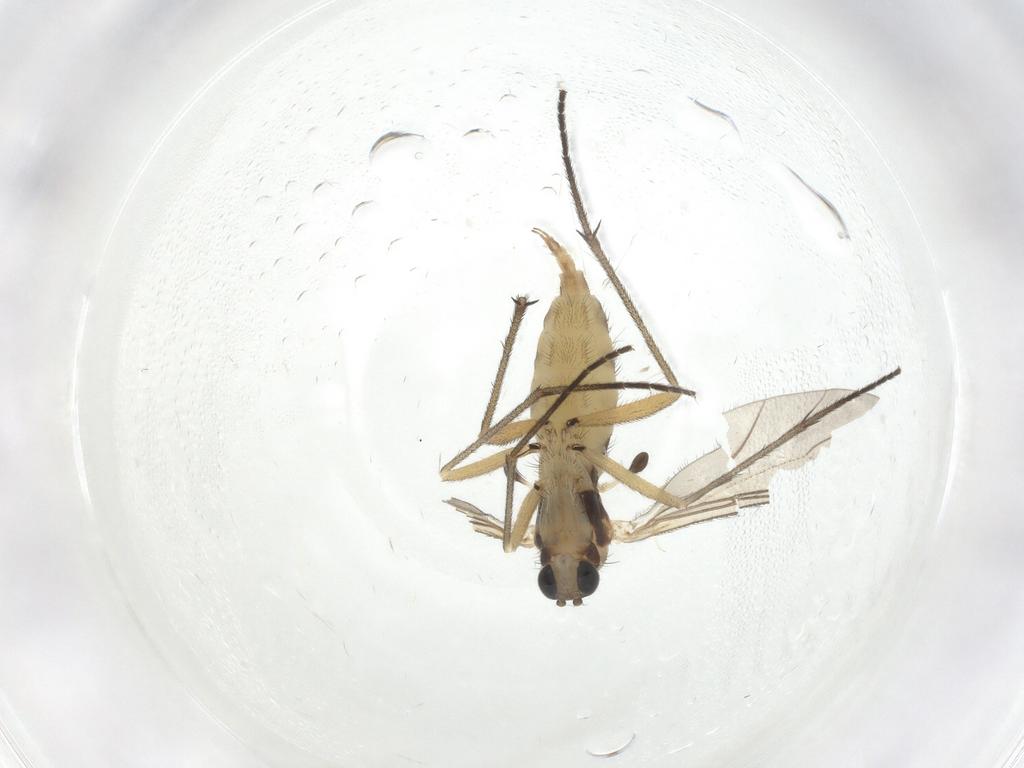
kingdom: Animalia
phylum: Arthropoda
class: Insecta
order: Diptera
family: Sciaridae
